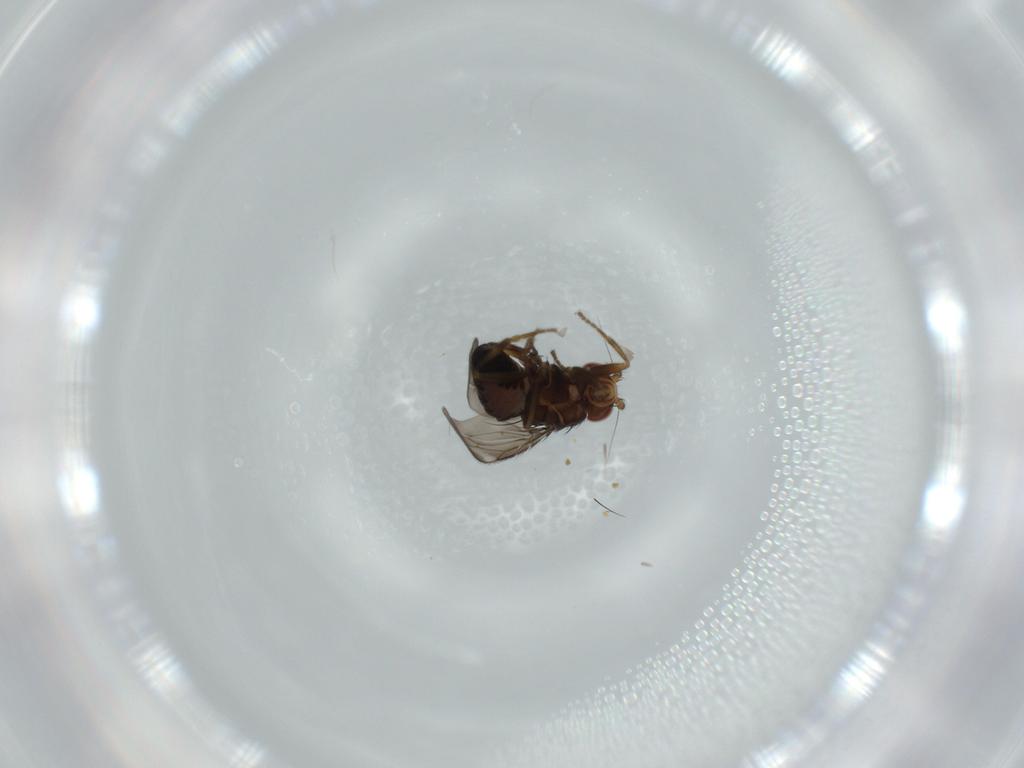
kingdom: Animalia
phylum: Arthropoda
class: Insecta
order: Diptera
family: Sphaeroceridae
